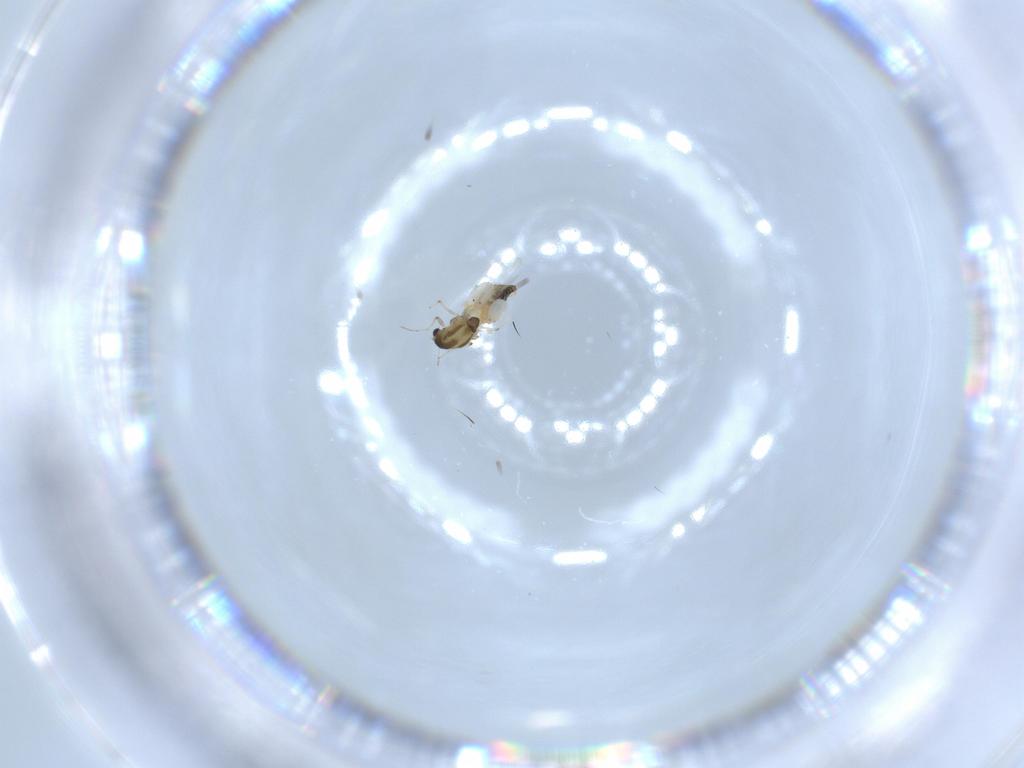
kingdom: Animalia
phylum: Arthropoda
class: Insecta
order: Diptera
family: Chironomidae
